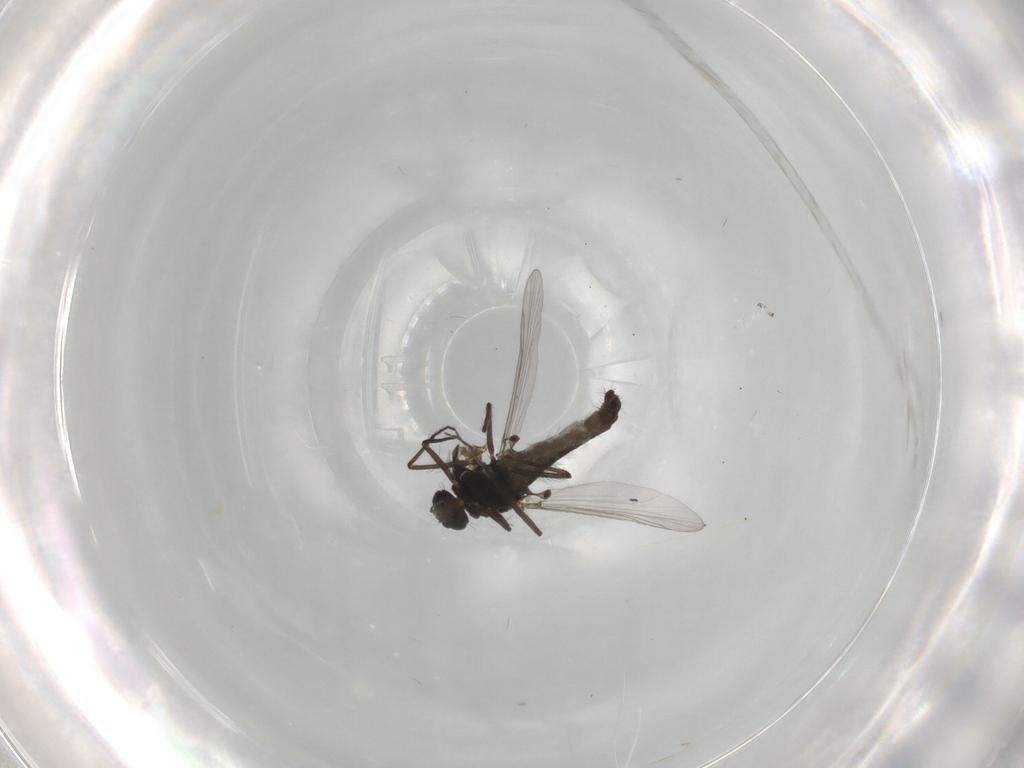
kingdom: Animalia
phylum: Arthropoda
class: Insecta
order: Diptera
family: Chironomidae
